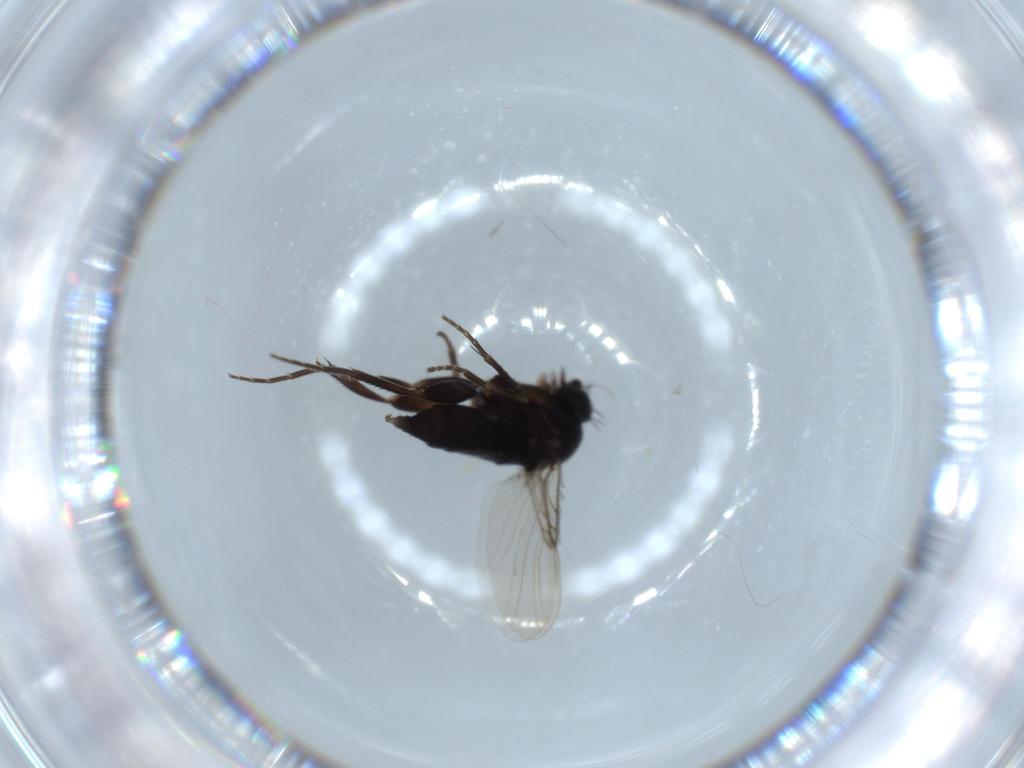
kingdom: Animalia
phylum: Arthropoda
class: Insecta
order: Diptera
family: Phoridae
